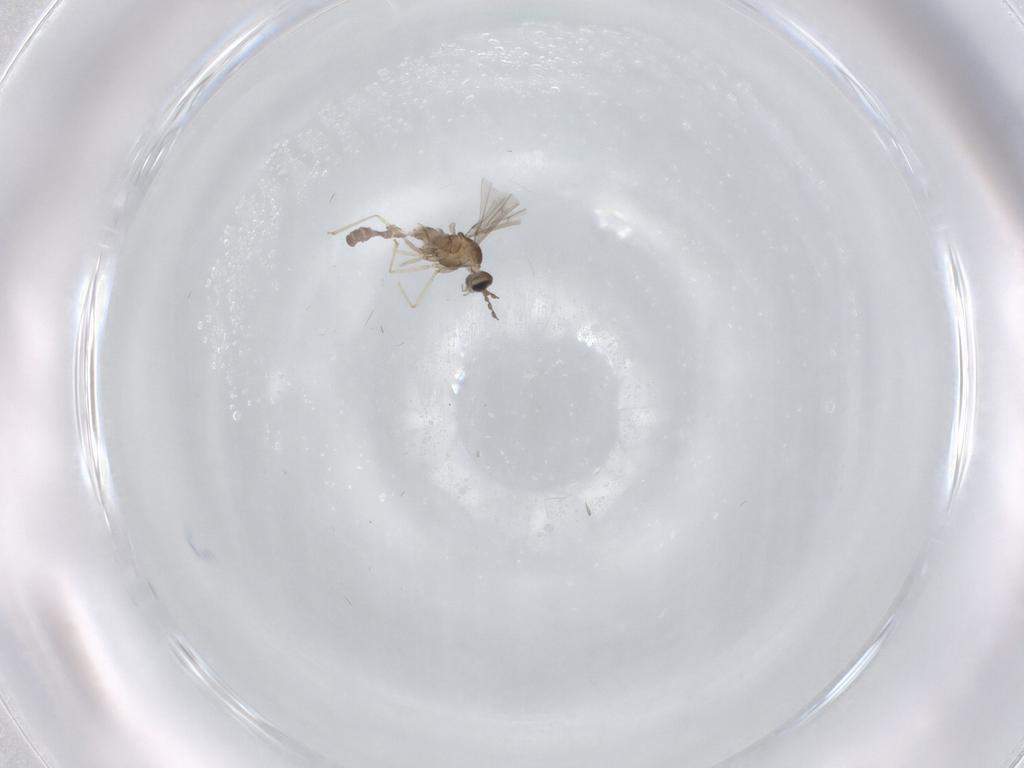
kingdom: Animalia
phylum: Arthropoda
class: Insecta
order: Diptera
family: Cecidomyiidae
